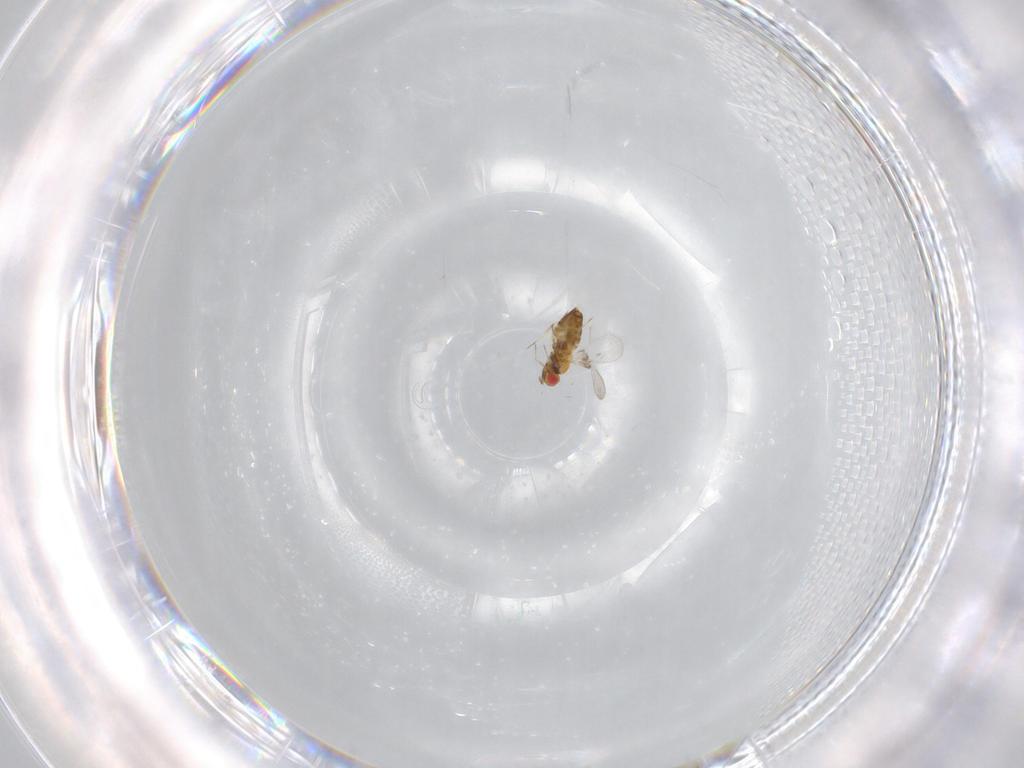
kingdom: Animalia
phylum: Arthropoda
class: Insecta
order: Hymenoptera
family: Trichogrammatidae
